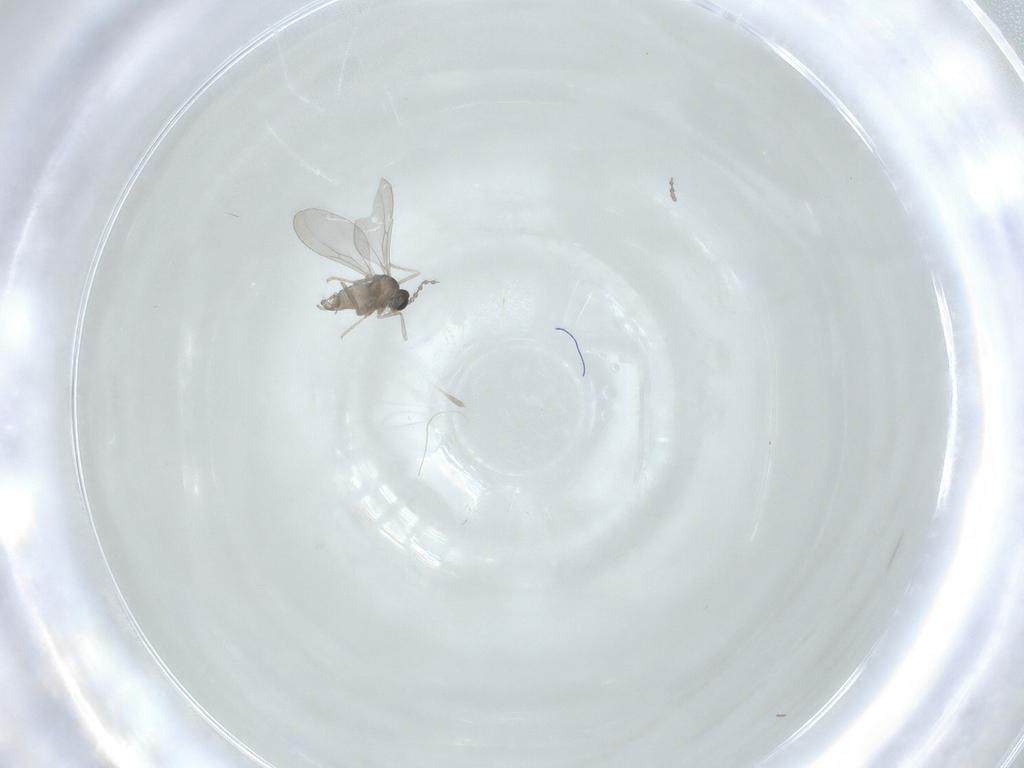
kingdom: Animalia
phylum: Arthropoda
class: Insecta
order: Diptera
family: Cecidomyiidae
